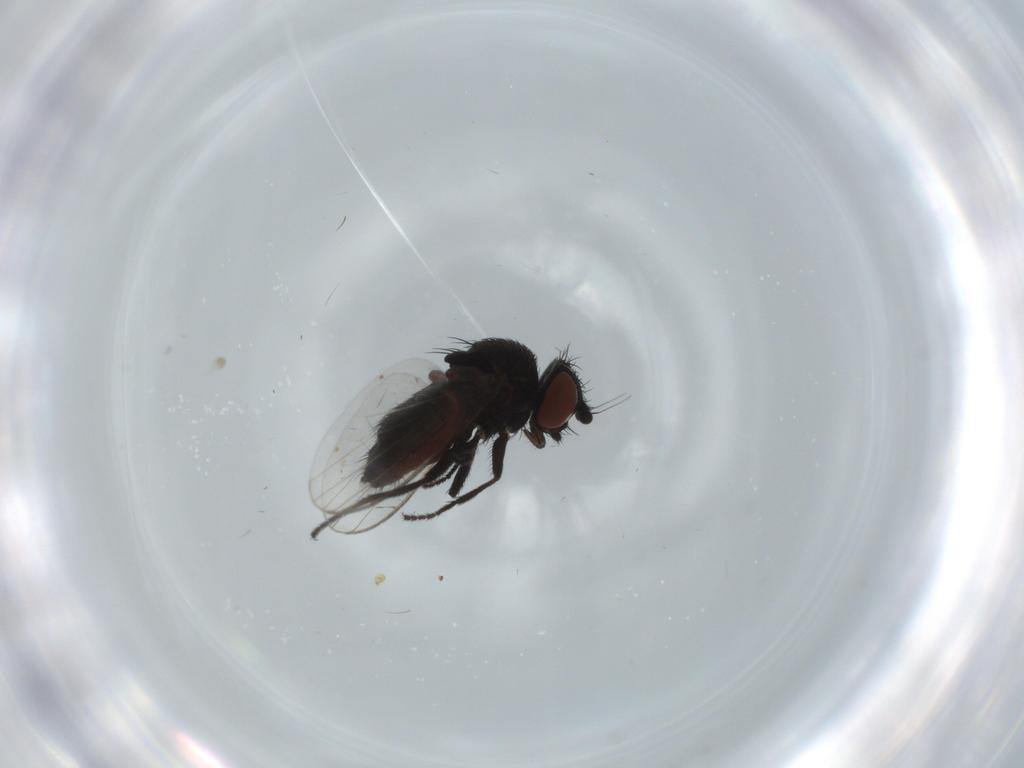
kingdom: Animalia
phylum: Arthropoda
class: Insecta
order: Diptera
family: Milichiidae
